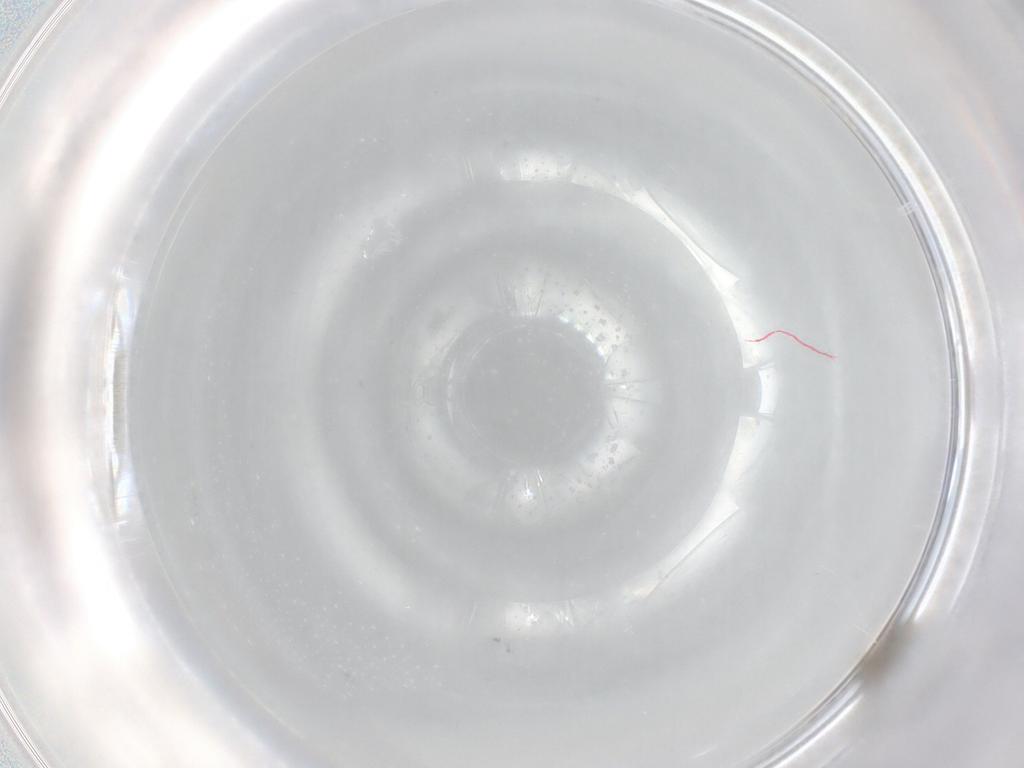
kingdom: Animalia
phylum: Arthropoda
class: Insecta
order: Diptera
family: Cecidomyiidae
